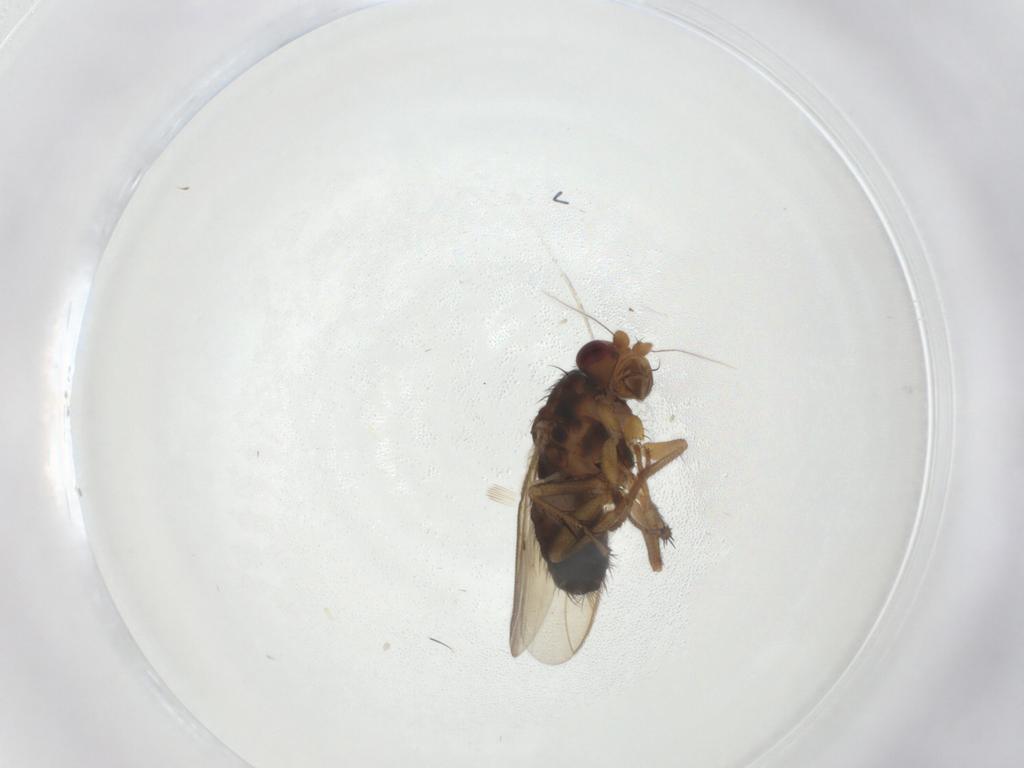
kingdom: Animalia
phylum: Arthropoda
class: Insecta
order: Diptera
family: Sphaeroceridae
